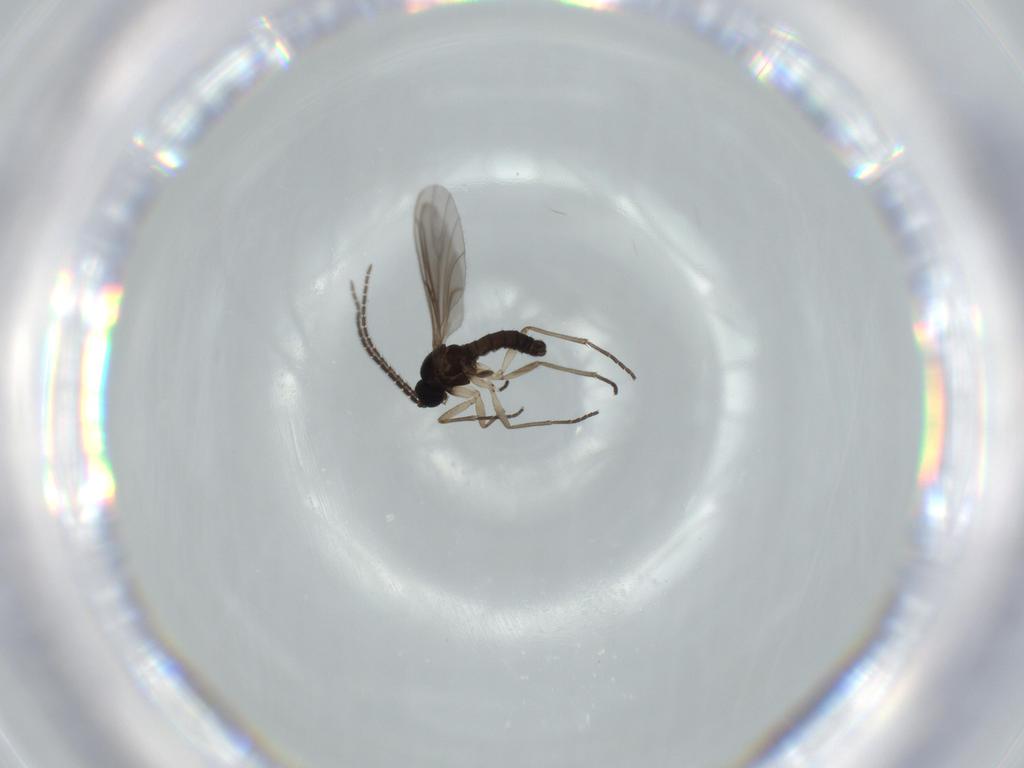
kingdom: Animalia
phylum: Arthropoda
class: Insecta
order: Diptera
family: Sciaridae
